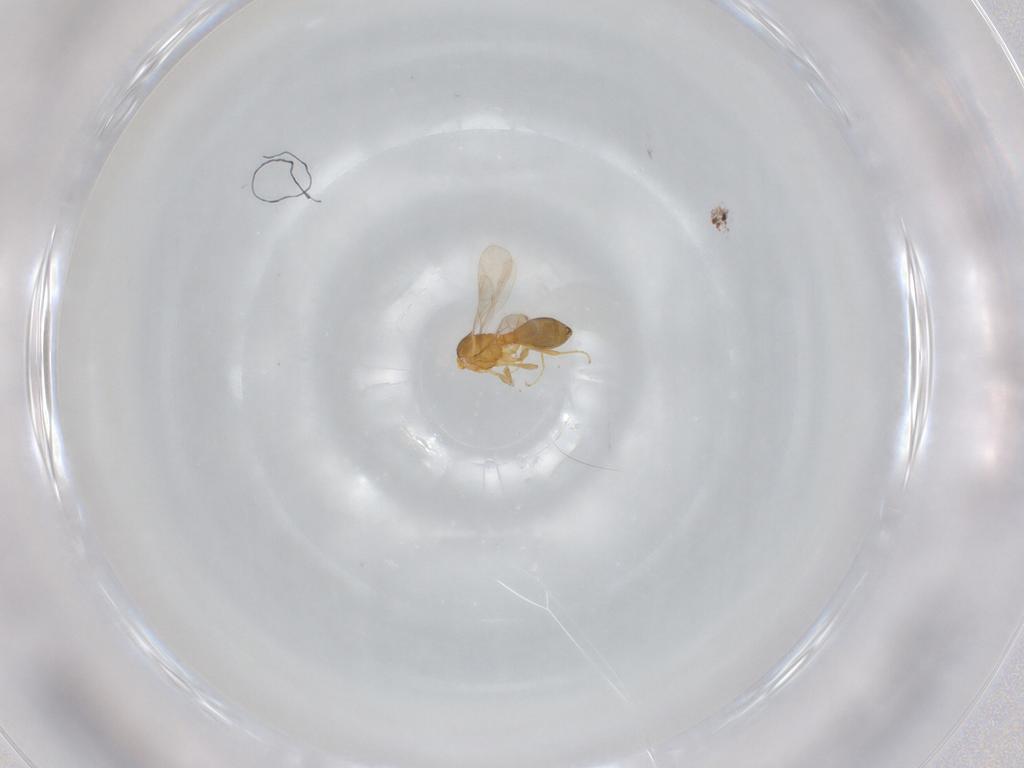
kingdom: Animalia
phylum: Arthropoda
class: Insecta
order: Hymenoptera
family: Scelionidae
